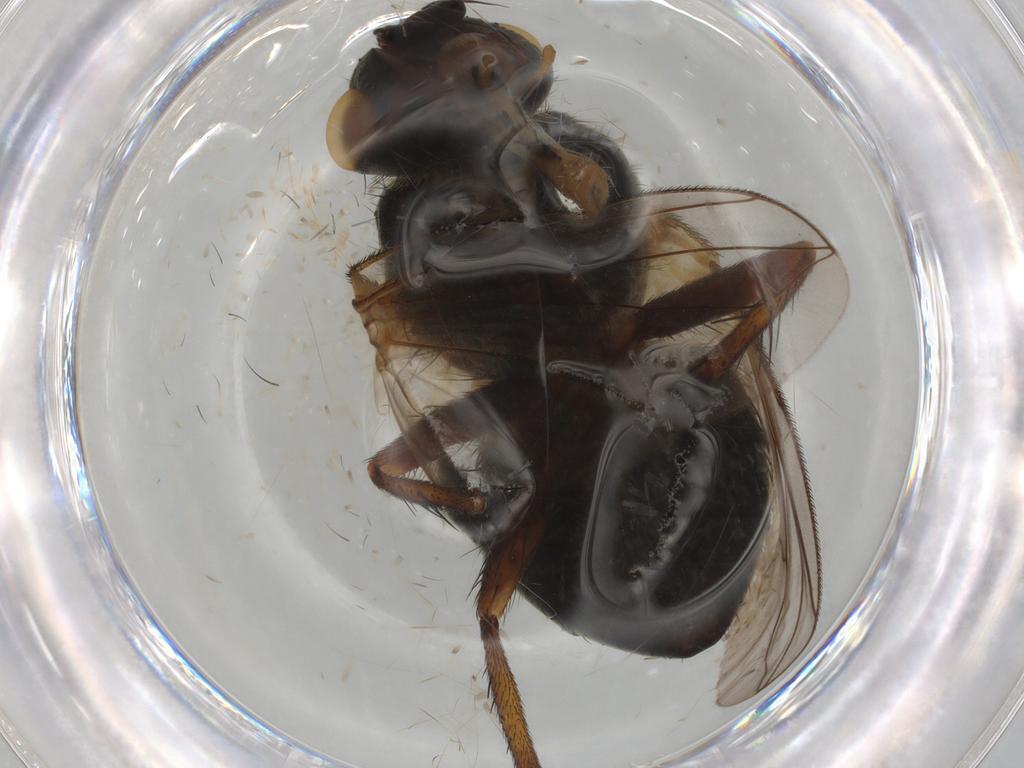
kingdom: Animalia
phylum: Arthropoda
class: Insecta
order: Diptera
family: Tachinidae
